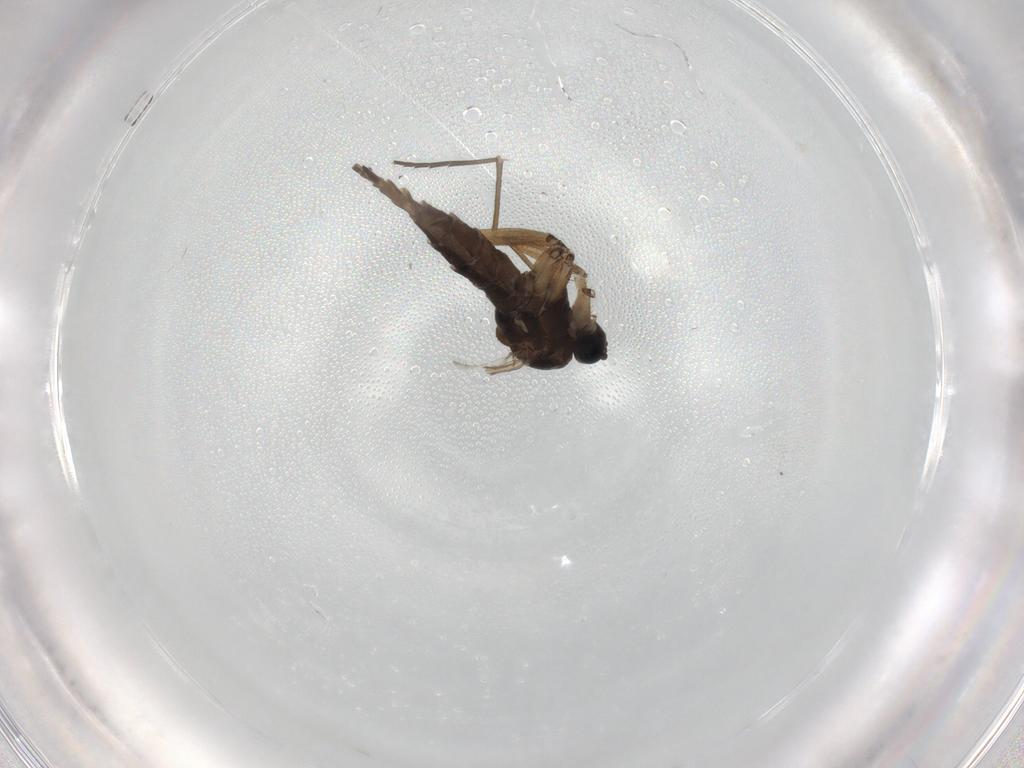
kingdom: Animalia
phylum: Arthropoda
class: Insecta
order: Diptera
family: Sciaridae
